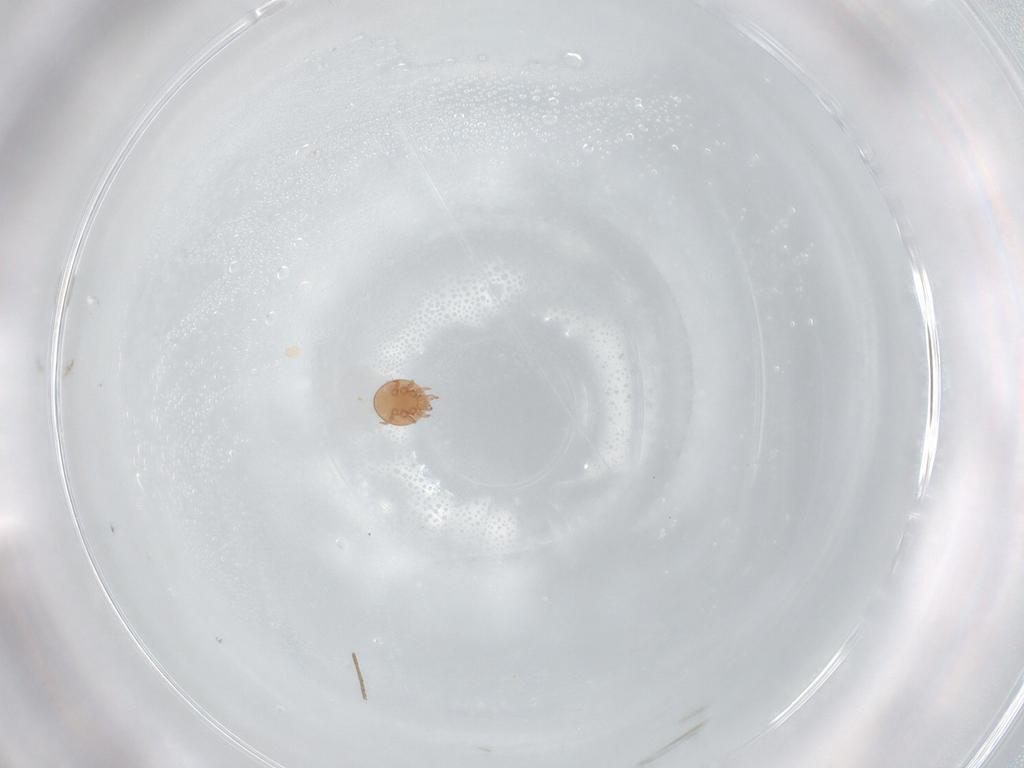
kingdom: Animalia
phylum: Arthropoda
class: Arachnida
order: Mesostigmata
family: Trematuridae
